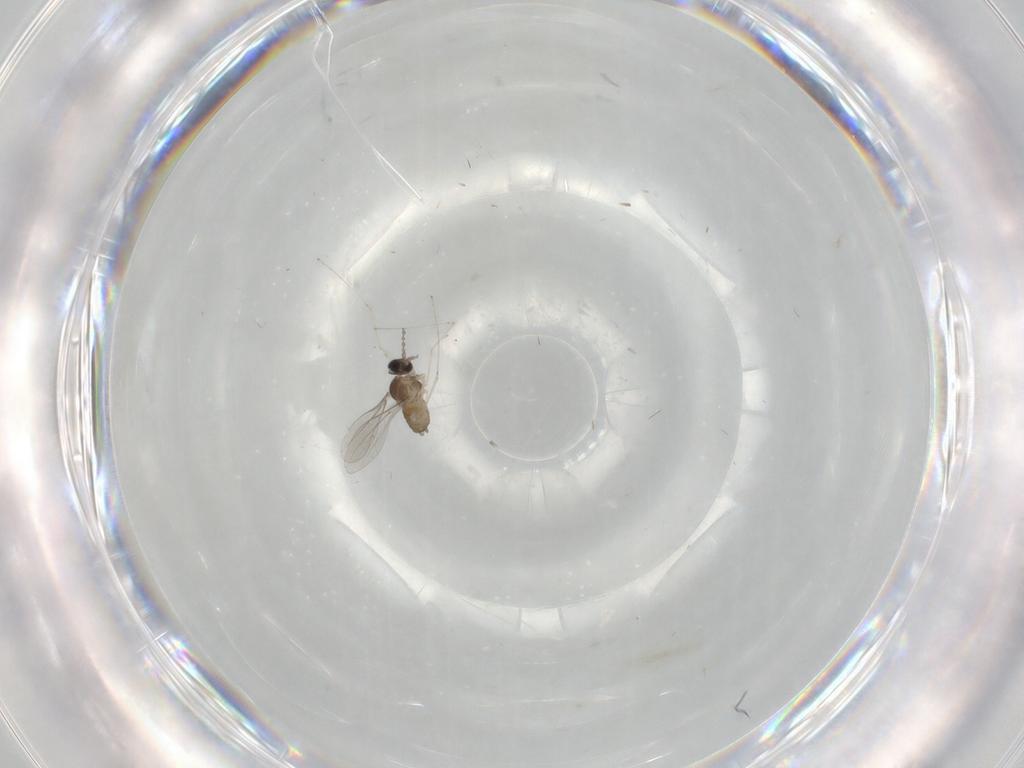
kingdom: Animalia
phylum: Arthropoda
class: Insecta
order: Diptera
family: Cecidomyiidae
